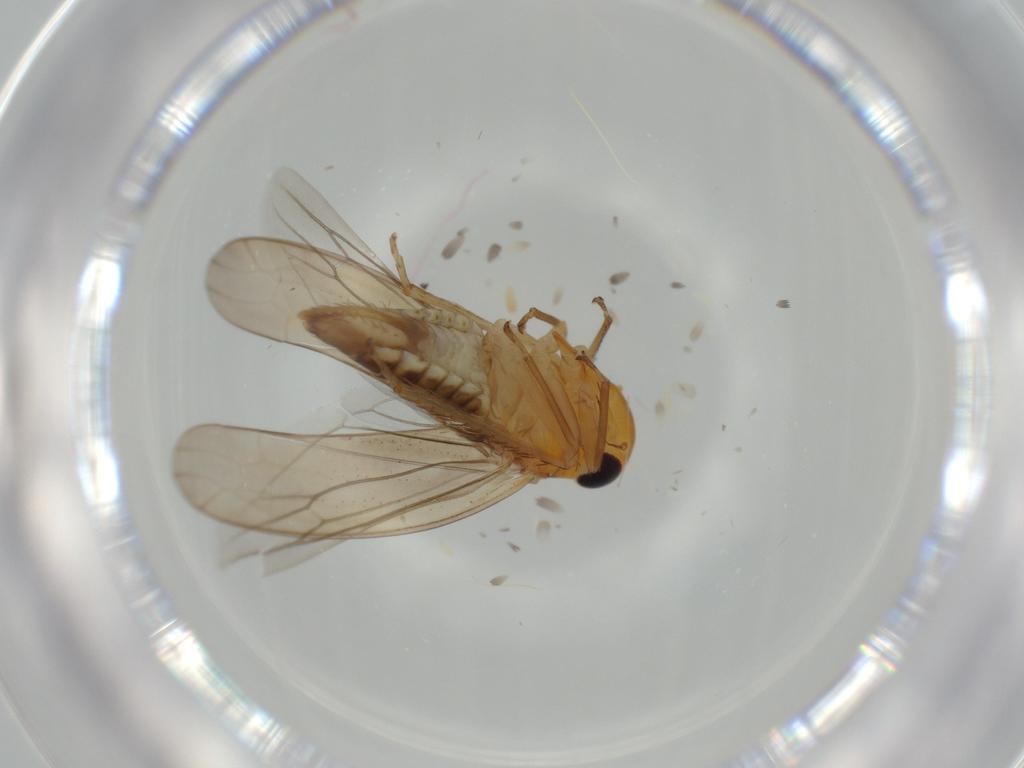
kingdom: Animalia
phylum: Arthropoda
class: Insecta
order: Hemiptera
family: Cicadellidae
